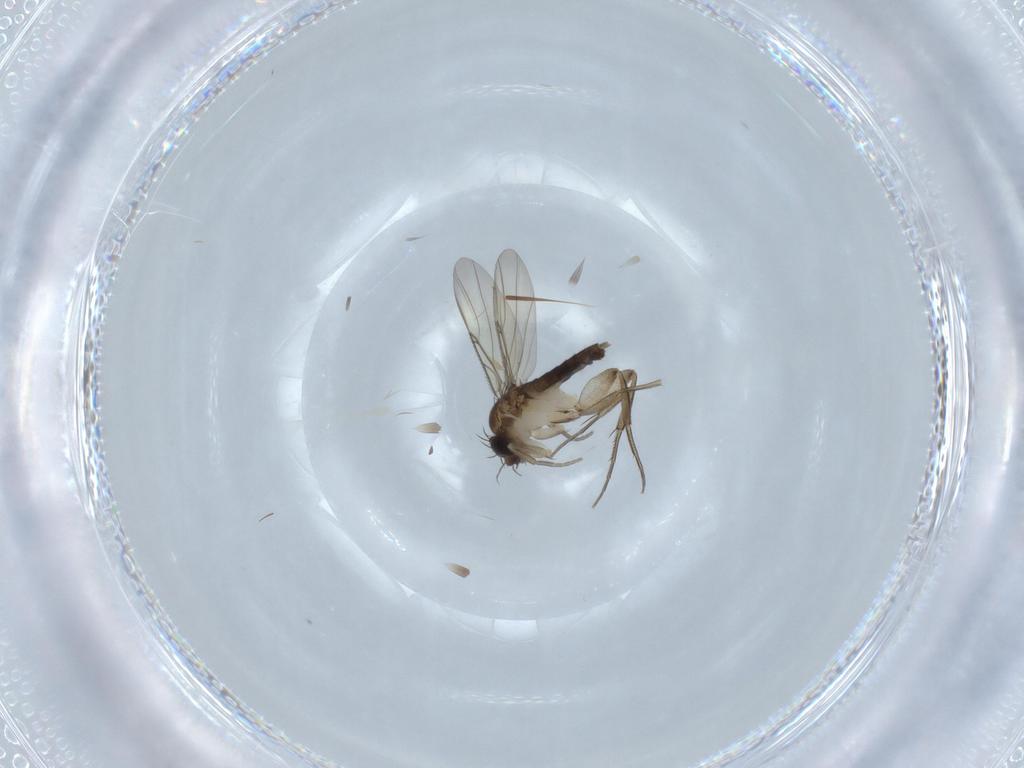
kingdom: Animalia
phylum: Arthropoda
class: Insecta
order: Diptera
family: Phoridae
